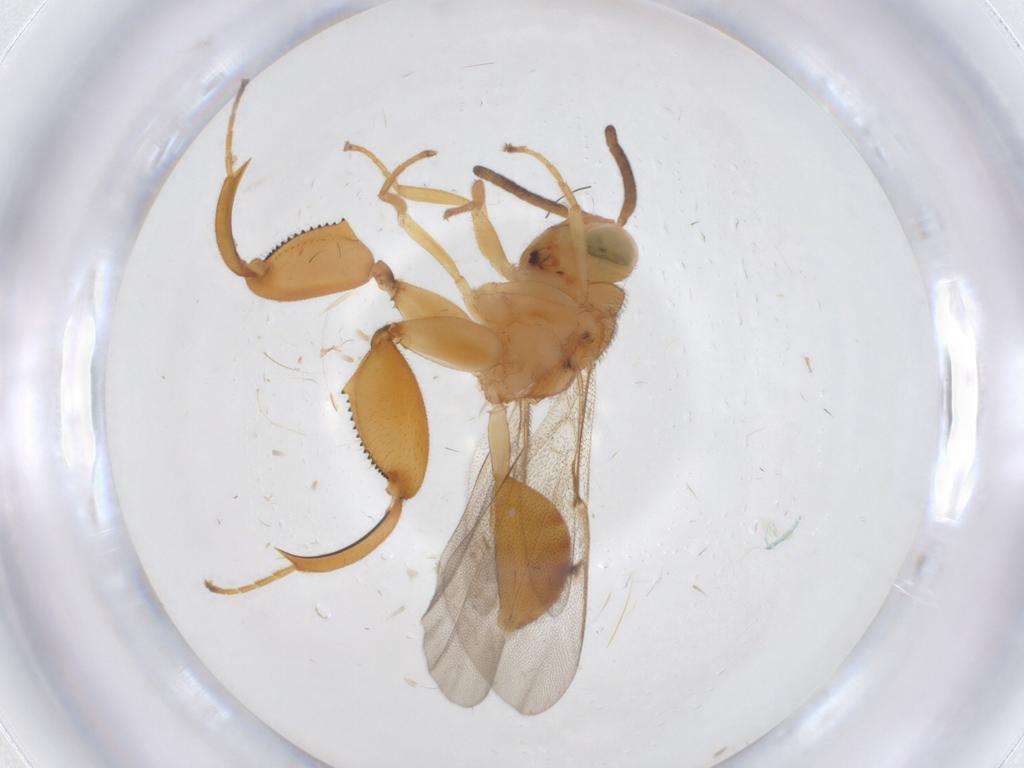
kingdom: Animalia
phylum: Arthropoda
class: Insecta
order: Hymenoptera
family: Chalcididae
